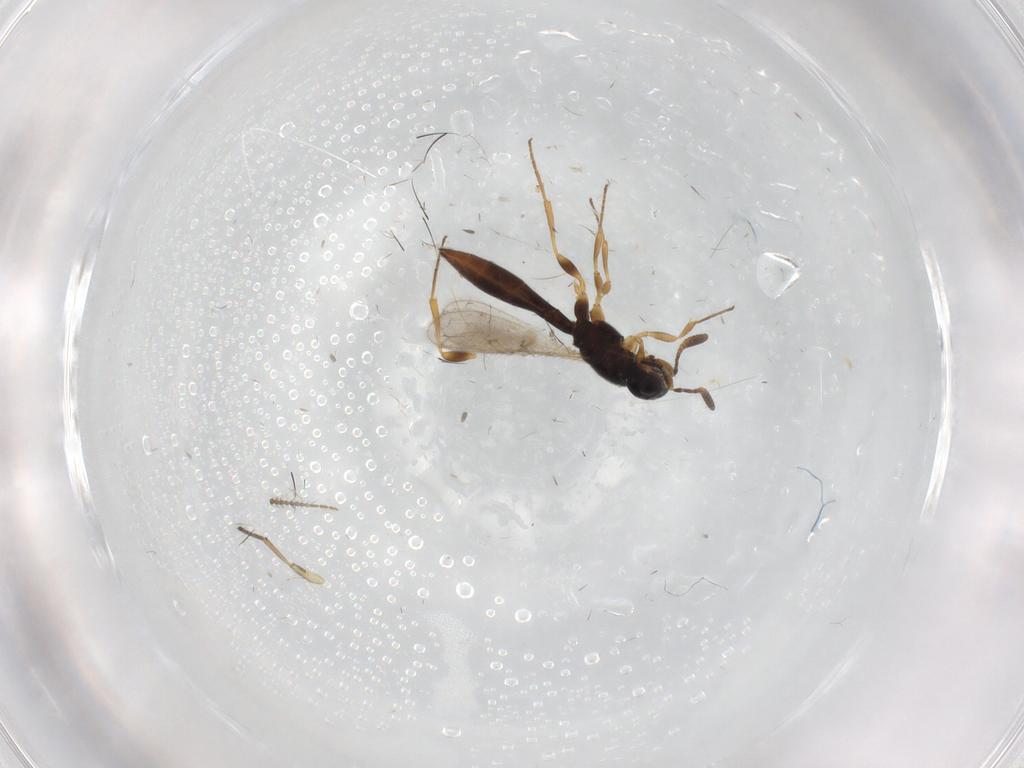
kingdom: Animalia
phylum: Arthropoda
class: Insecta
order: Hymenoptera
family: Scelionidae
